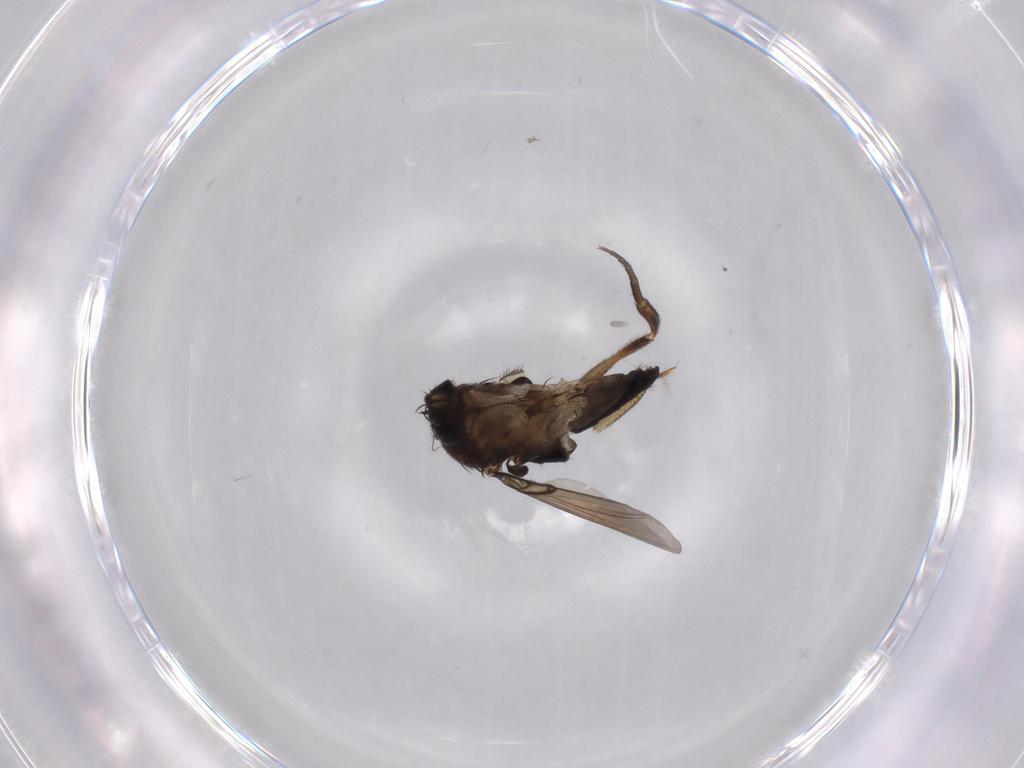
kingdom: Animalia
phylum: Arthropoda
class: Insecta
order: Diptera
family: Phoridae
